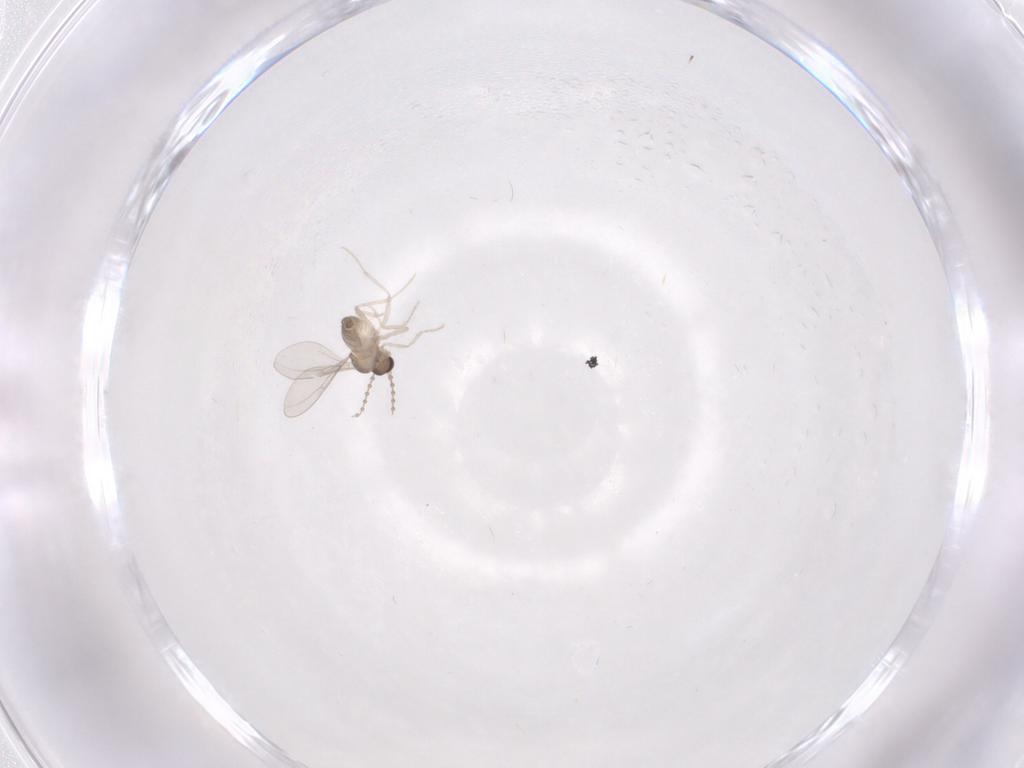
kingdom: Animalia
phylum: Arthropoda
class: Insecta
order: Diptera
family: Cecidomyiidae
